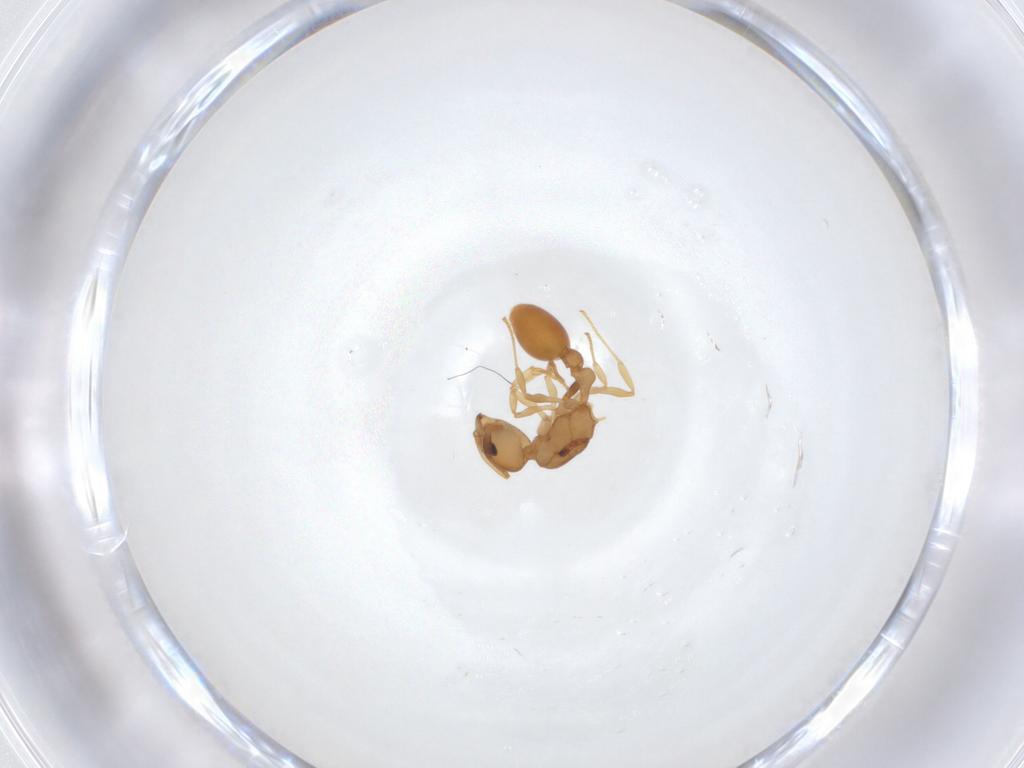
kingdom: Animalia
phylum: Arthropoda
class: Insecta
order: Hymenoptera
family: Formicidae
